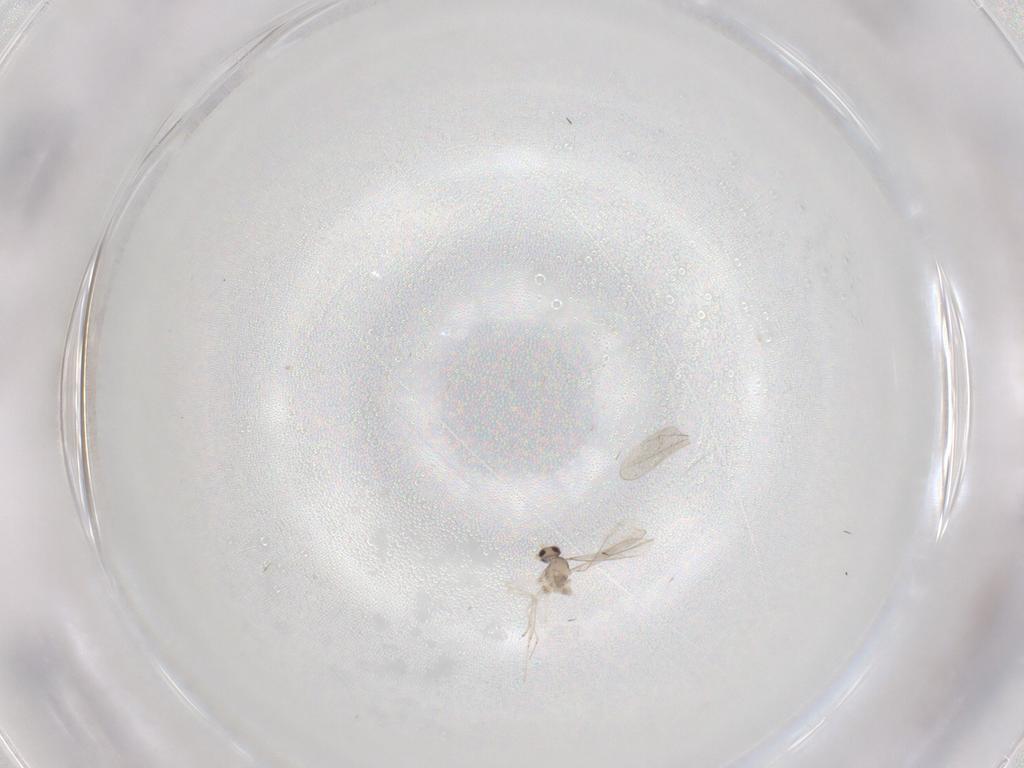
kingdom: Animalia
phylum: Arthropoda
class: Insecta
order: Diptera
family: Cecidomyiidae
